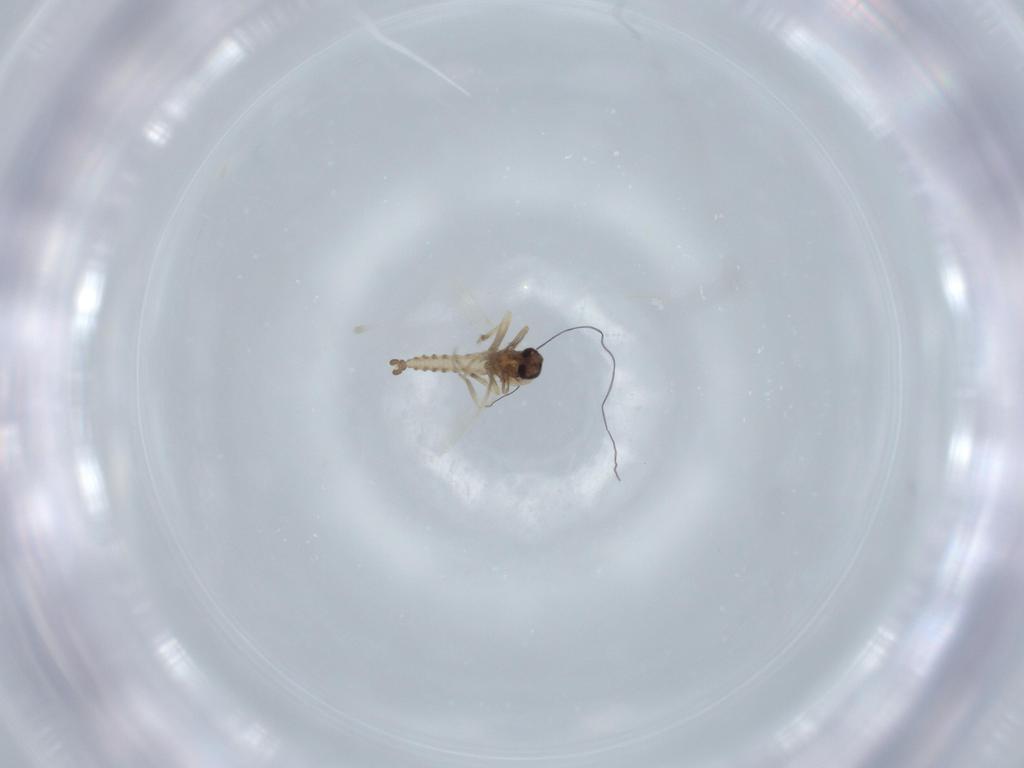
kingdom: Animalia
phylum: Arthropoda
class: Insecta
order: Diptera
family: Ceratopogonidae
